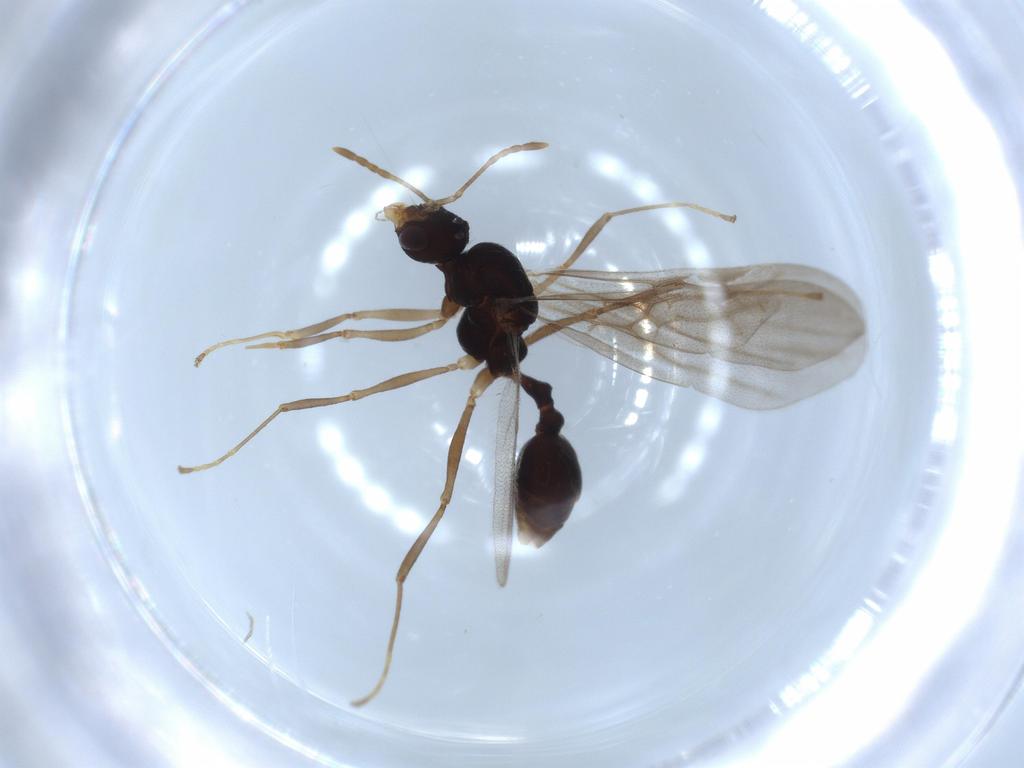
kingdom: Animalia
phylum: Arthropoda
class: Insecta
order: Hymenoptera
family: Formicidae
